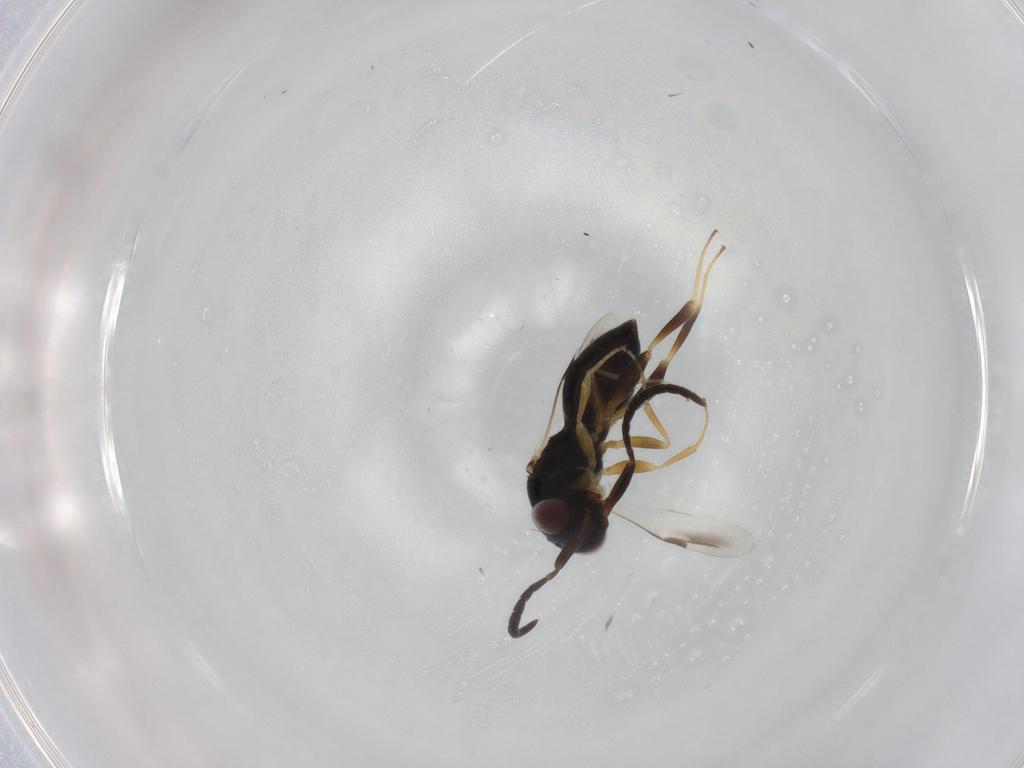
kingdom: Animalia
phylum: Arthropoda
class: Insecta
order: Hymenoptera
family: Megaspilidae
